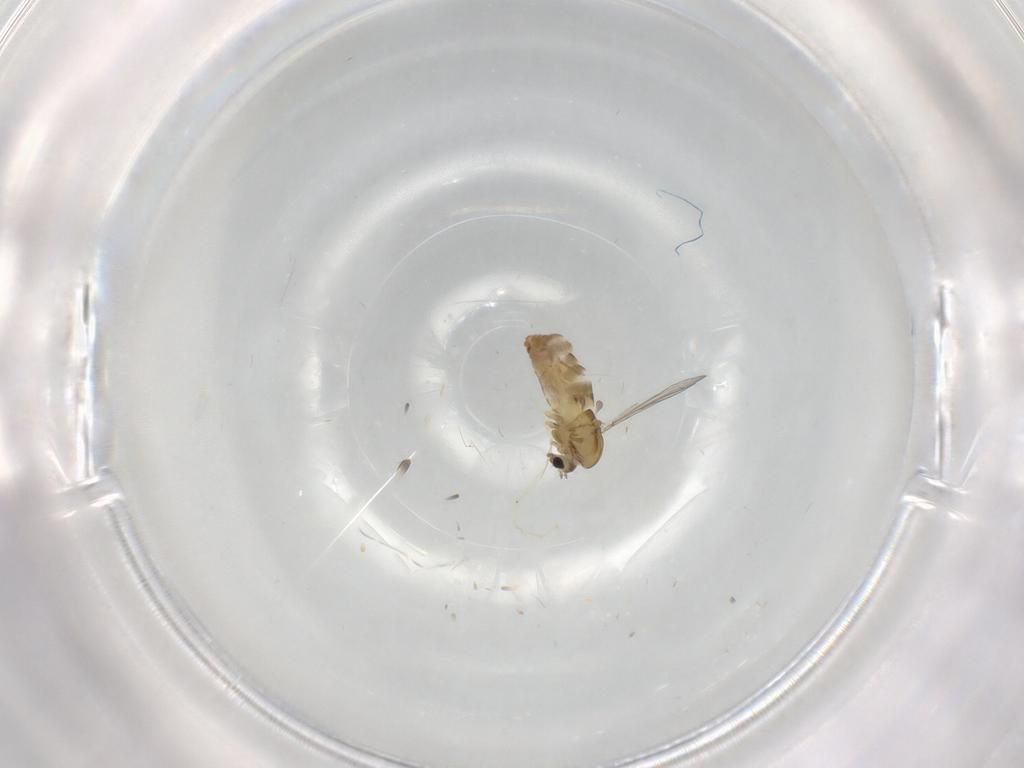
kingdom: Animalia
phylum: Arthropoda
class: Insecta
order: Diptera
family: Chironomidae
